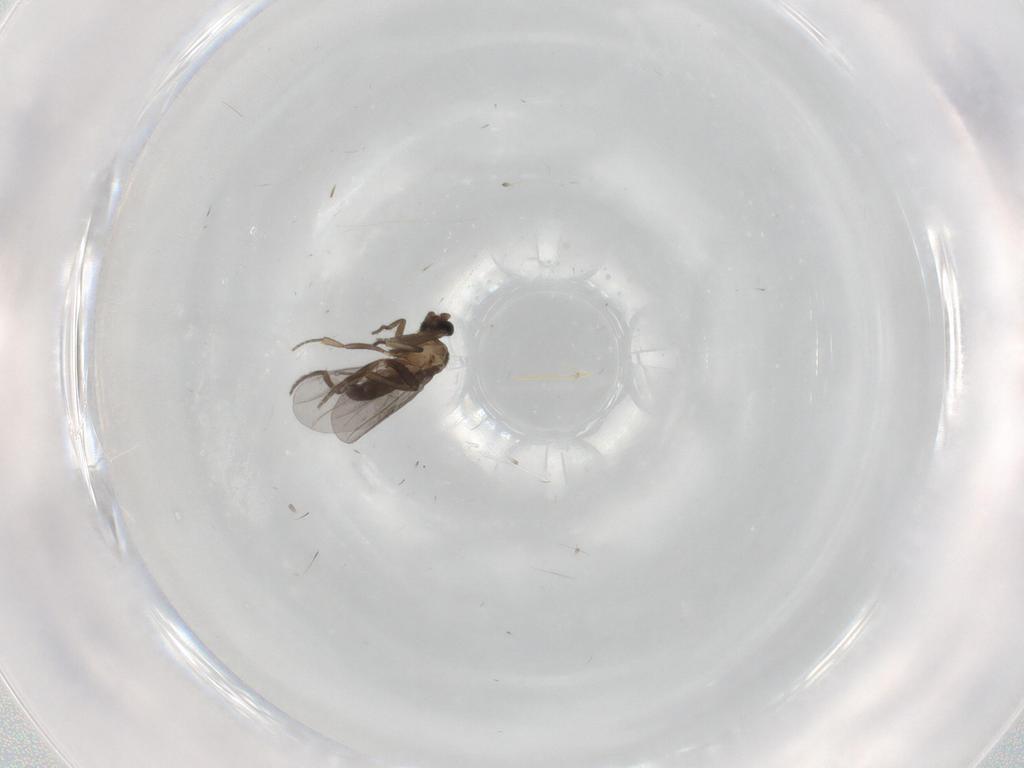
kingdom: Animalia
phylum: Arthropoda
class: Insecta
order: Diptera
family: Phoridae
